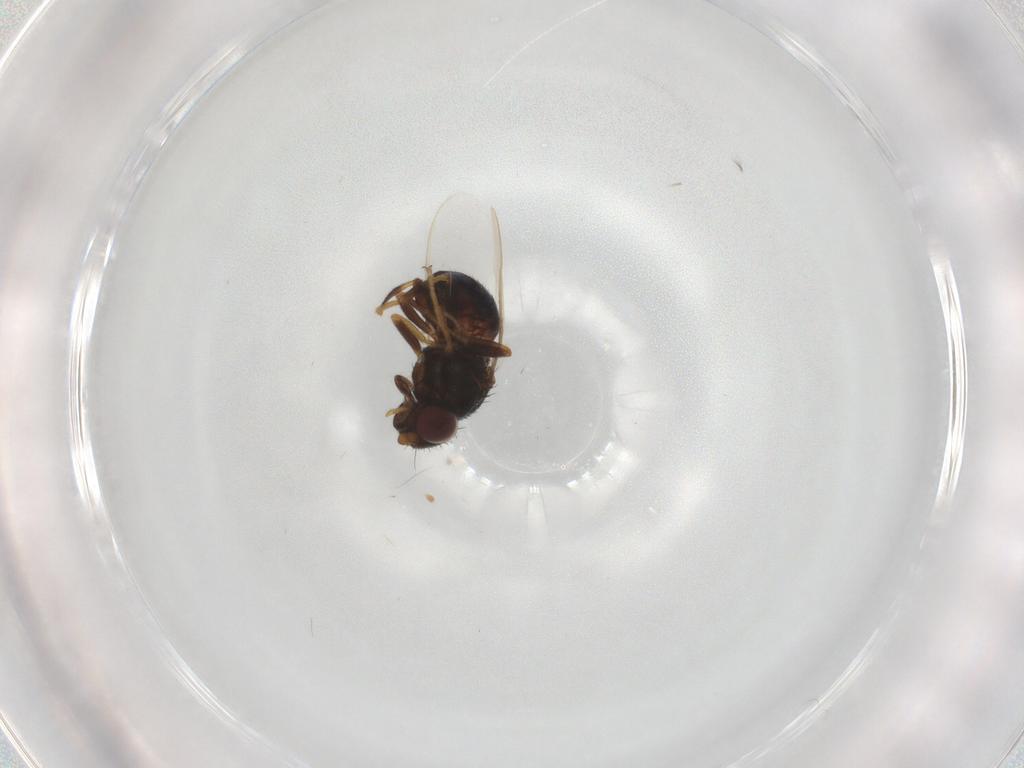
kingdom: Animalia
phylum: Arthropoda
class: Insecta
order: Diptera
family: Chloropidae
